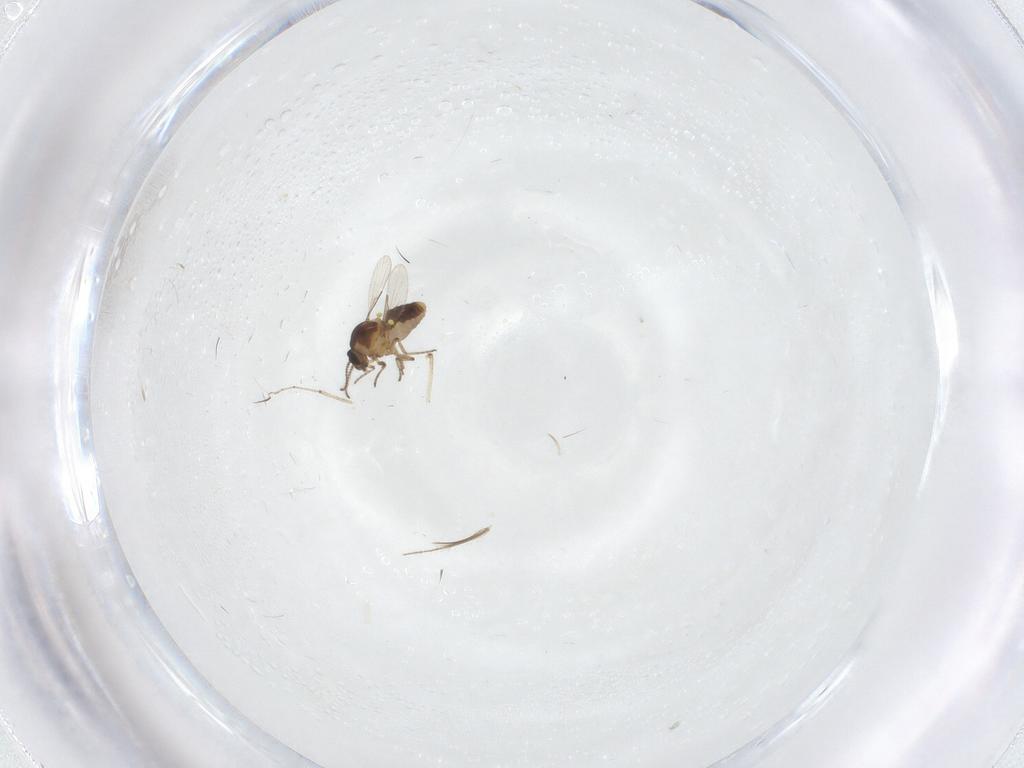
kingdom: Animalia
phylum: Arthropoda
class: Insecta
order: Diptera
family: Ceratopogonidae
